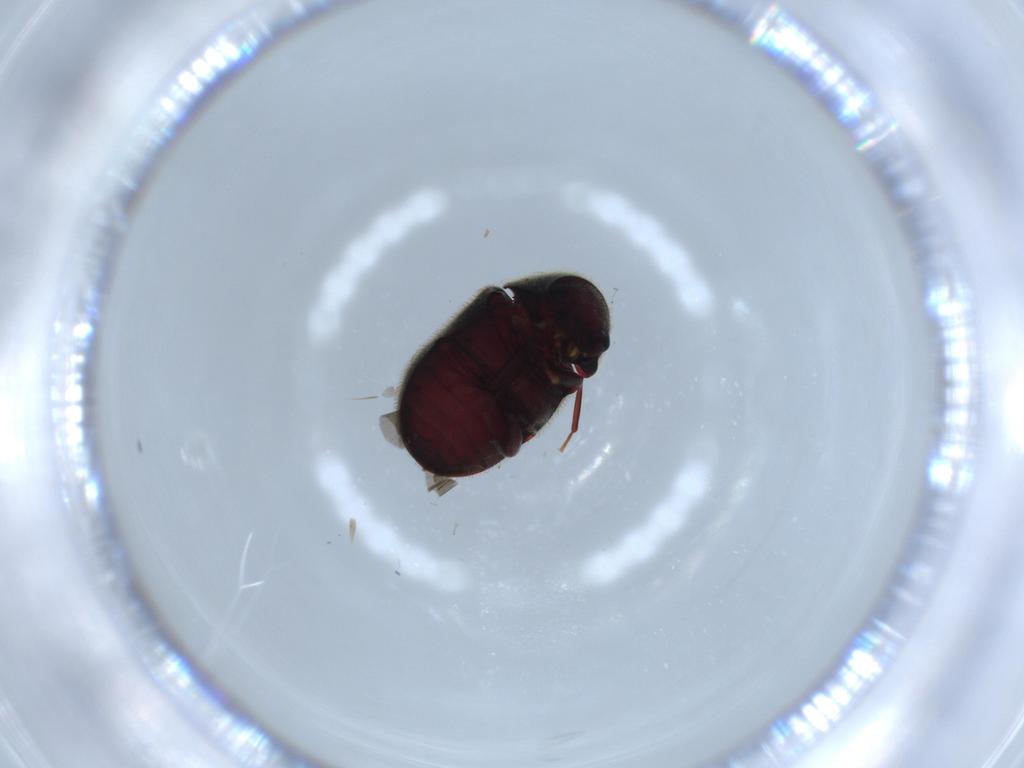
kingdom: Animalia
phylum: Arthropoda
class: Insecta
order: Coleoptera
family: Ptinidae
